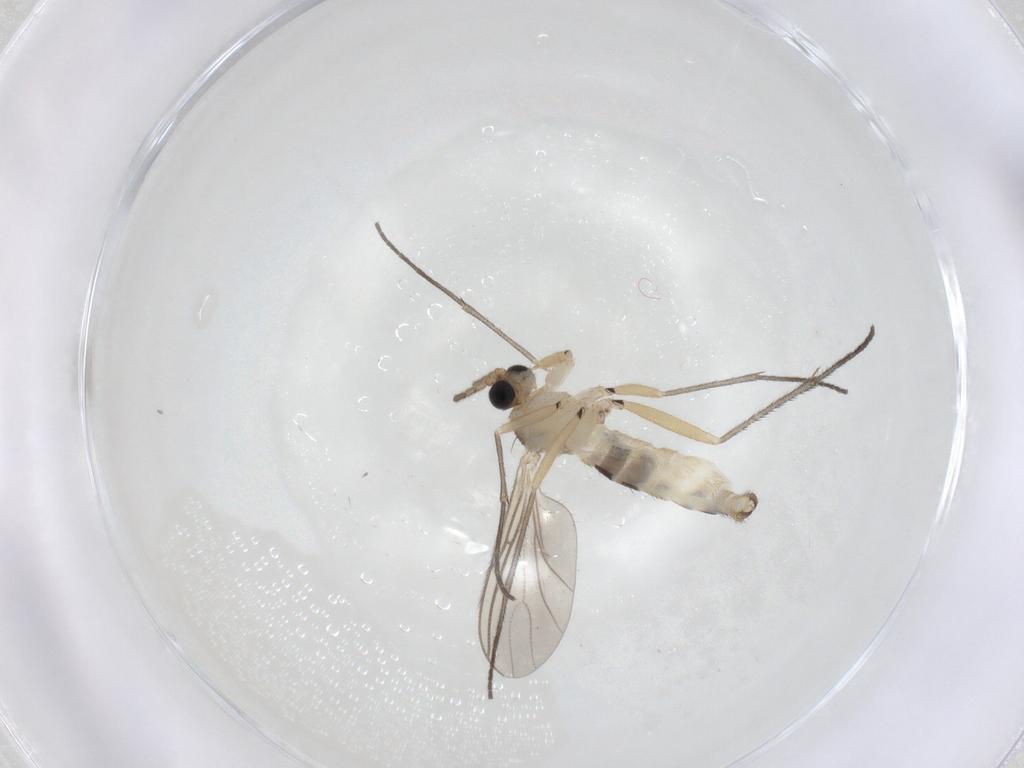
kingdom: Animalia
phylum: Arthropoda
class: Insecta
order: Diptera
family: Sciaridae
